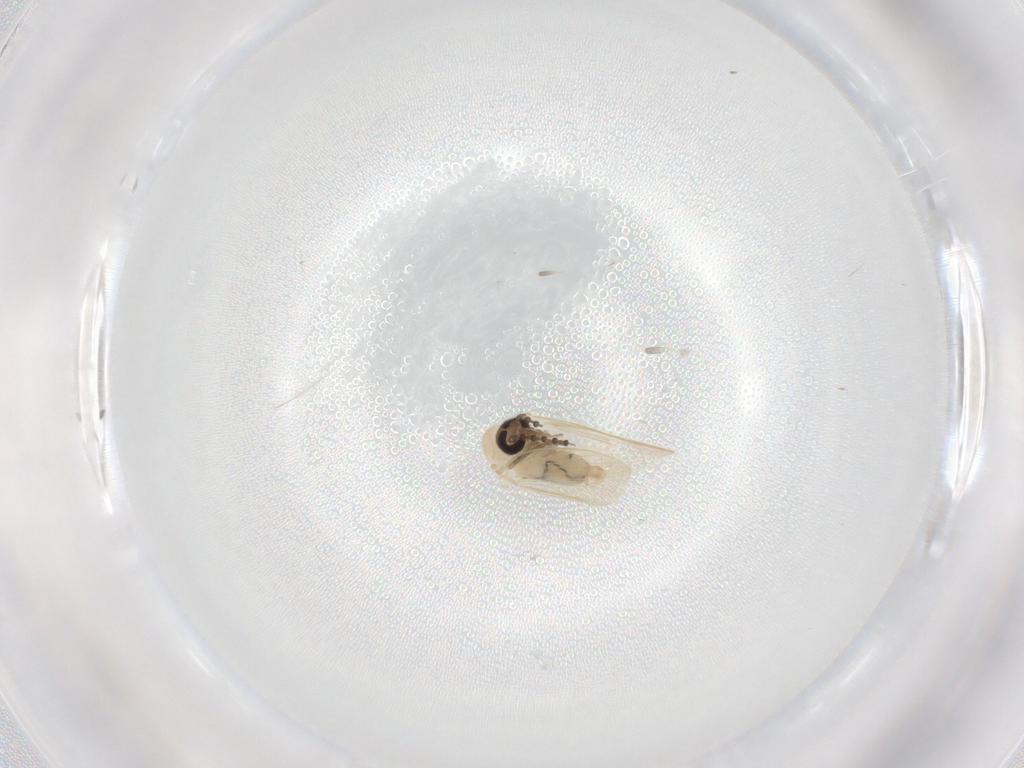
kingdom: Animalia
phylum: Arthropoda
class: Insecta
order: Diptera
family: Psychodidae
